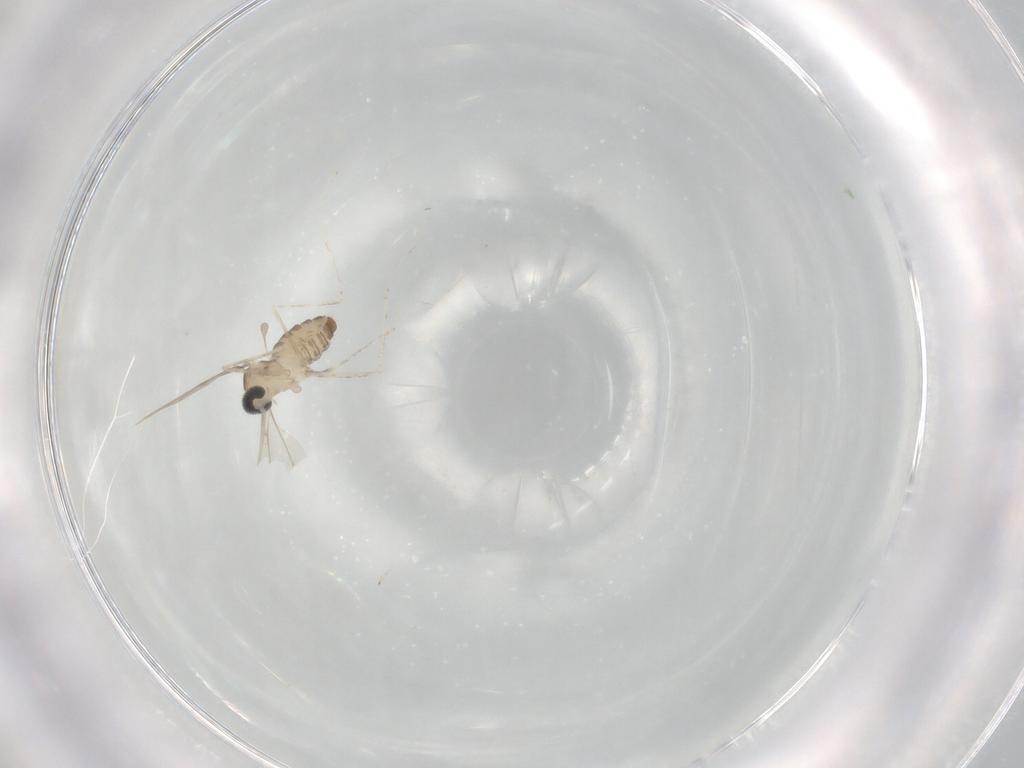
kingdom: Animalia
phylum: Arthropoda
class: Insecta
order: Diptera
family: Cecidomyiidae
